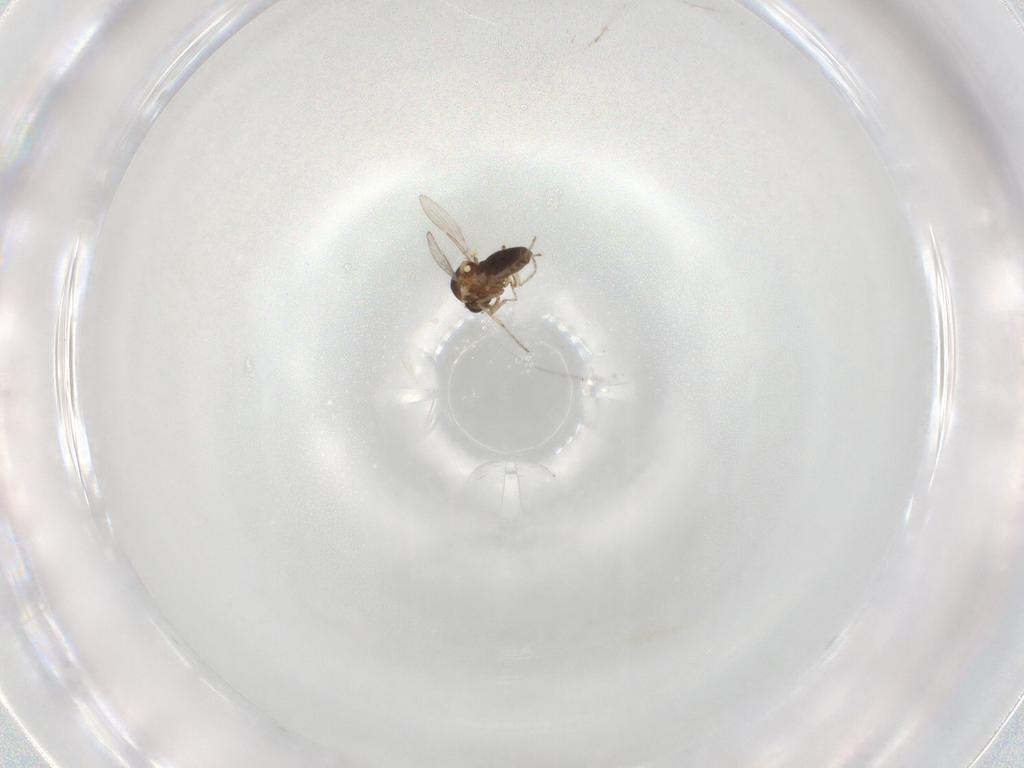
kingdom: Animalia
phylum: Arthropoda
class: Insecta
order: Diptera
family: Ceratopogonidae
